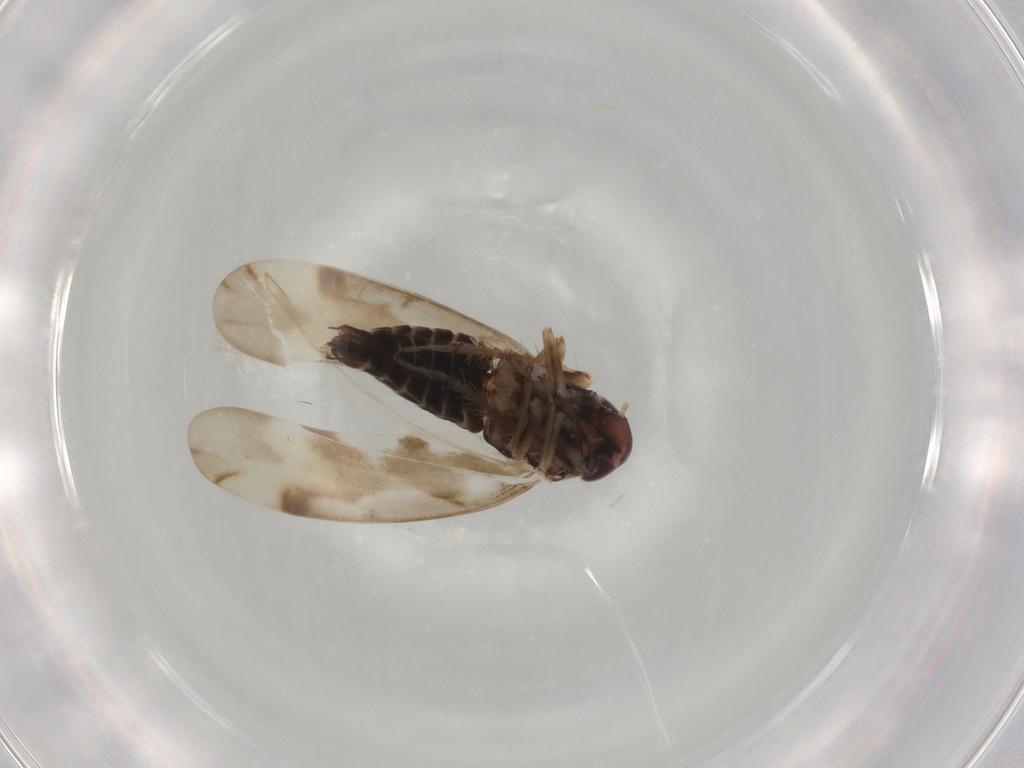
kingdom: Animalia
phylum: Arthropoda
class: Insecta
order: Hemiptera
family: Cicadellidae
